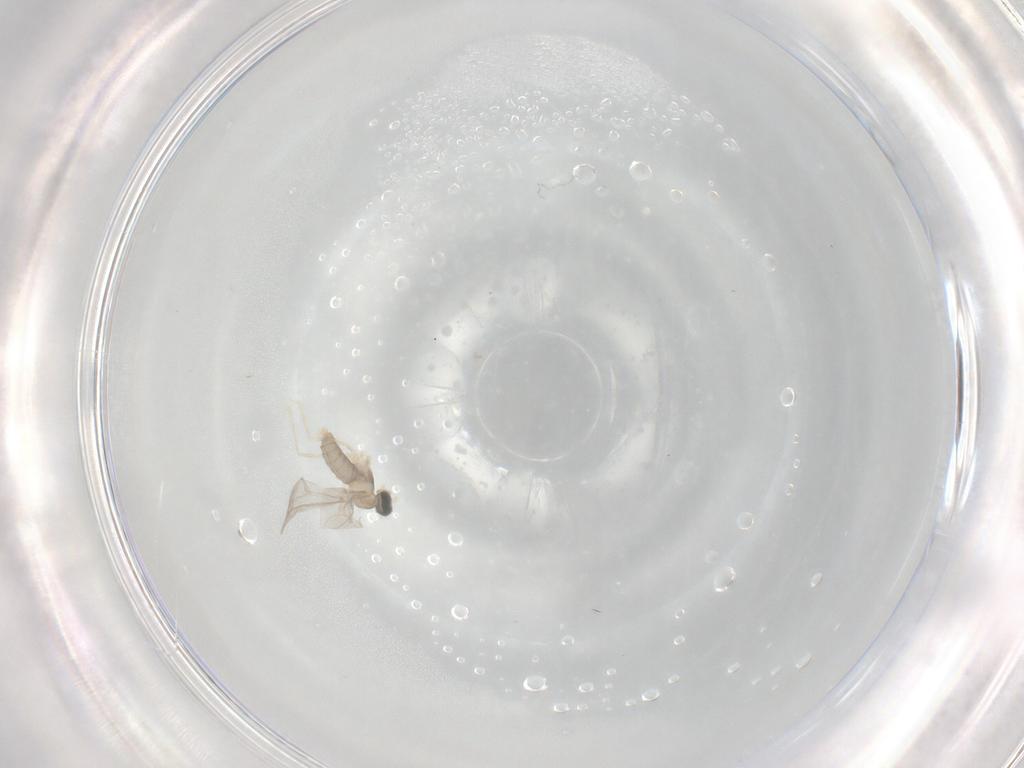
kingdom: Animalia
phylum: Arthropoda
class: Insecta
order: Diptera
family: Cecidomyiidae
